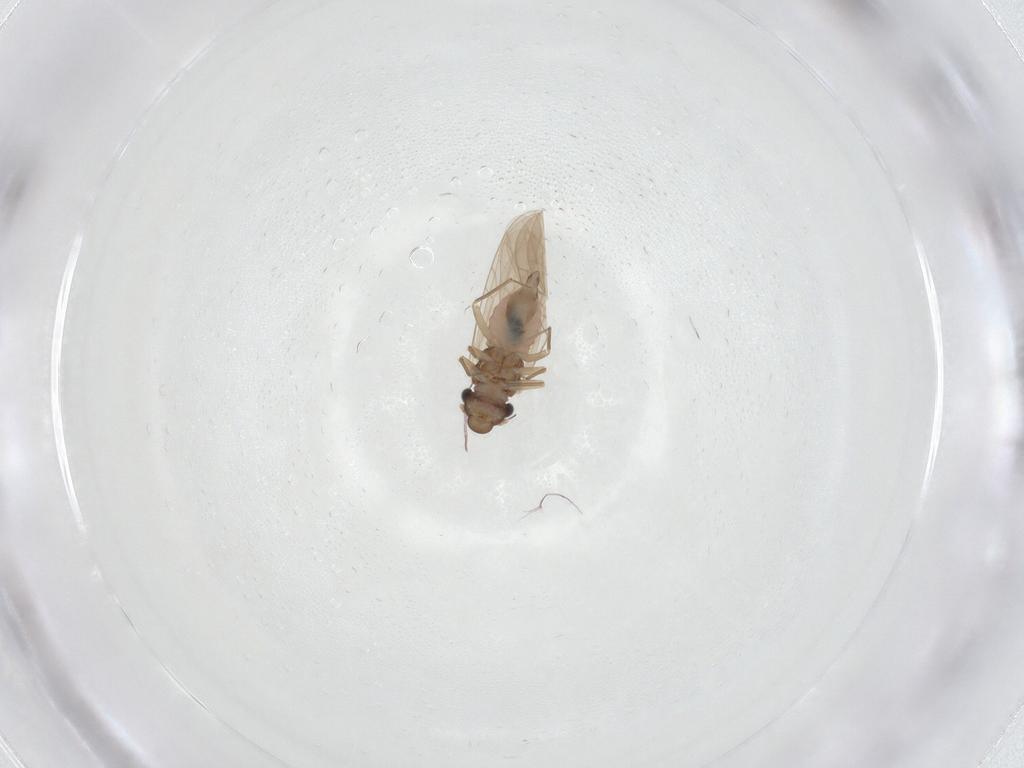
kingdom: Animalia
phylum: Arthropoda
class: Insecta
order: Psocodea
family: Lepidopsocidae
